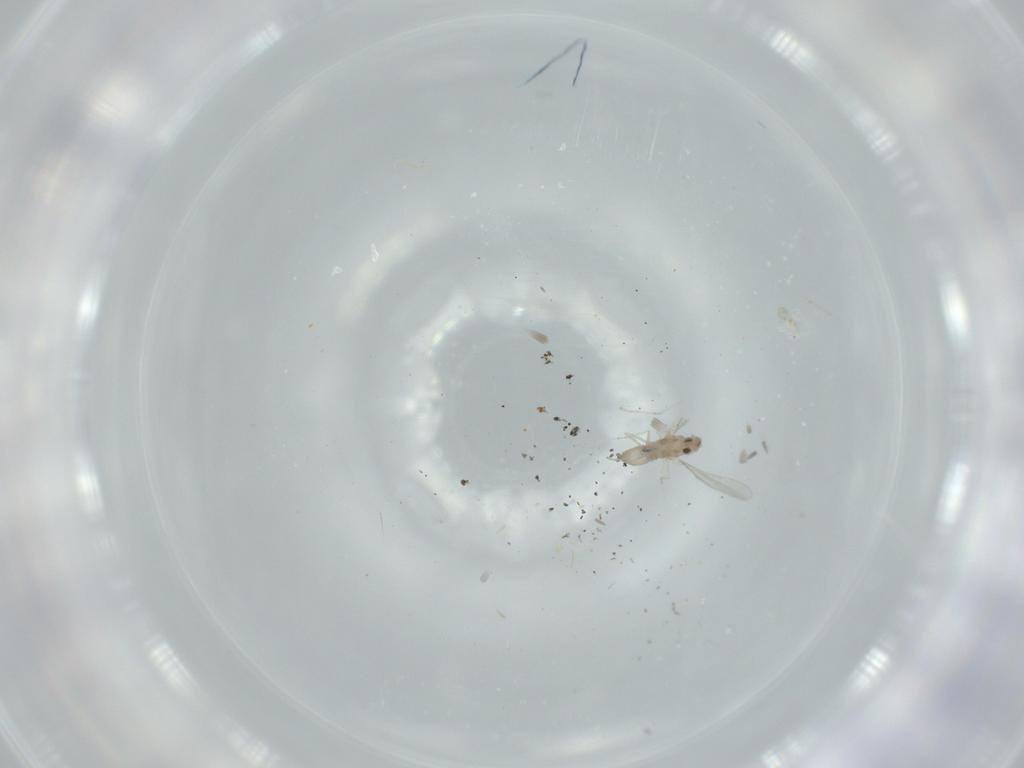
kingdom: Animalia
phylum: Arthropoda
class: Insecta
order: Diptera
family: Cecidomyiidae
